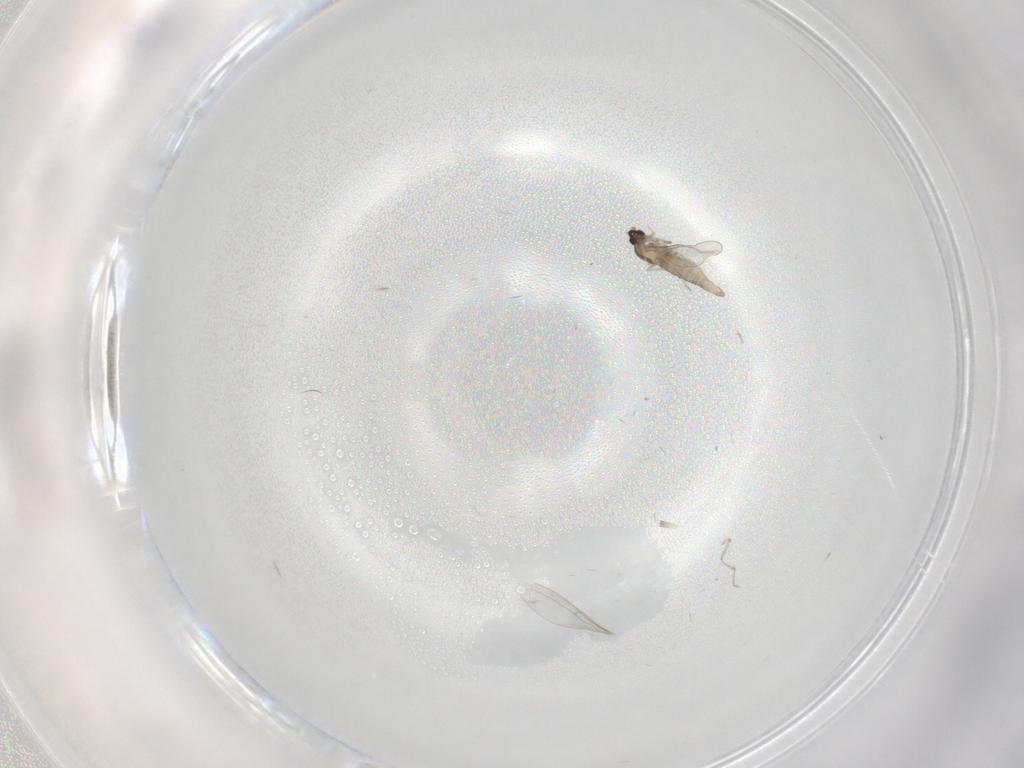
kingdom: Animalia
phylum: Arthropoda
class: Insecta
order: Diptera
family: Cecidomyiidae
